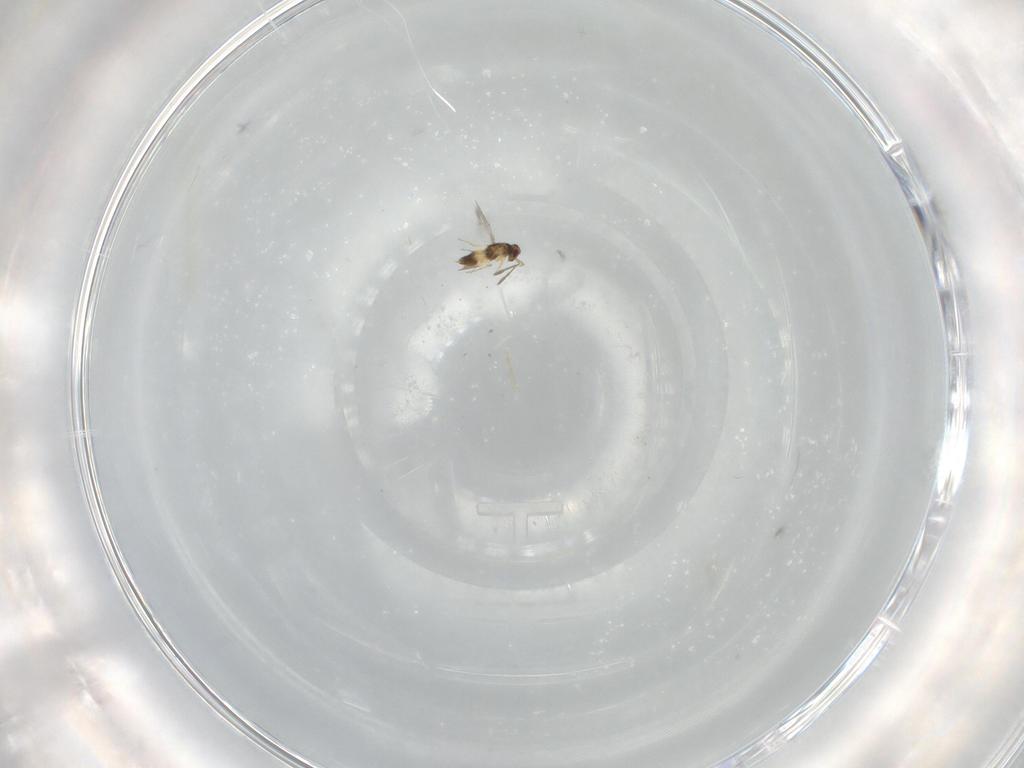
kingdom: Animalia
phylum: Arthropoda
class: Insecta
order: Hymenoptera
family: Mymaridae
